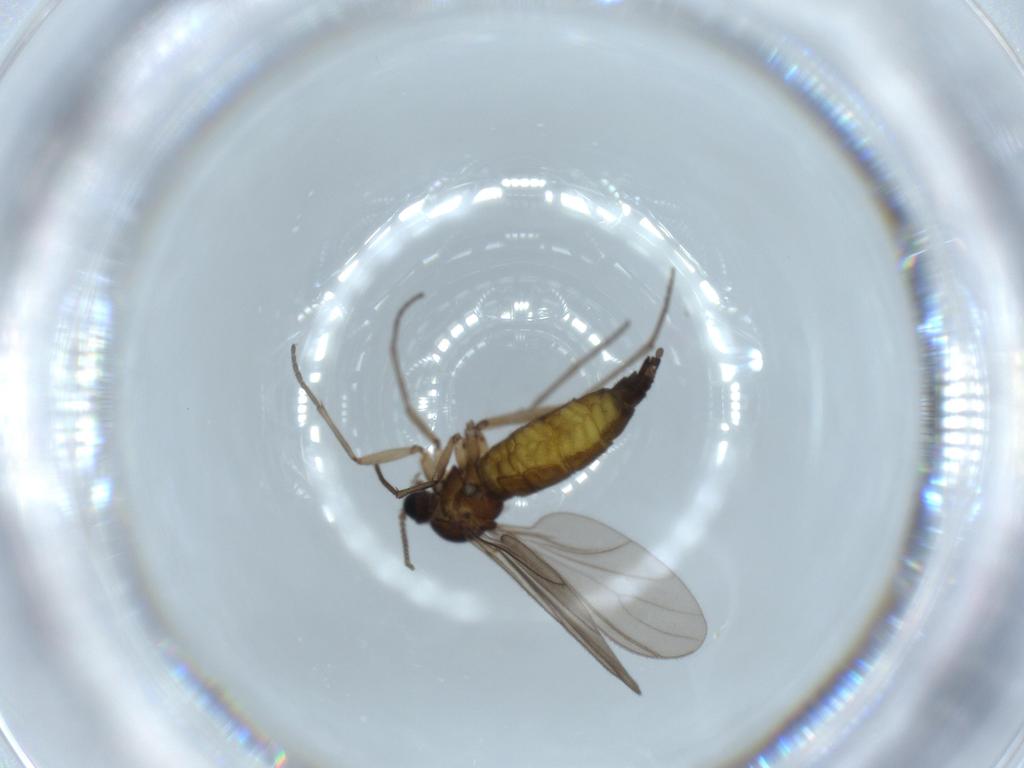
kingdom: Animalia
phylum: Arthropoda
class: Insecta
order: Diptera
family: Sciaridae
